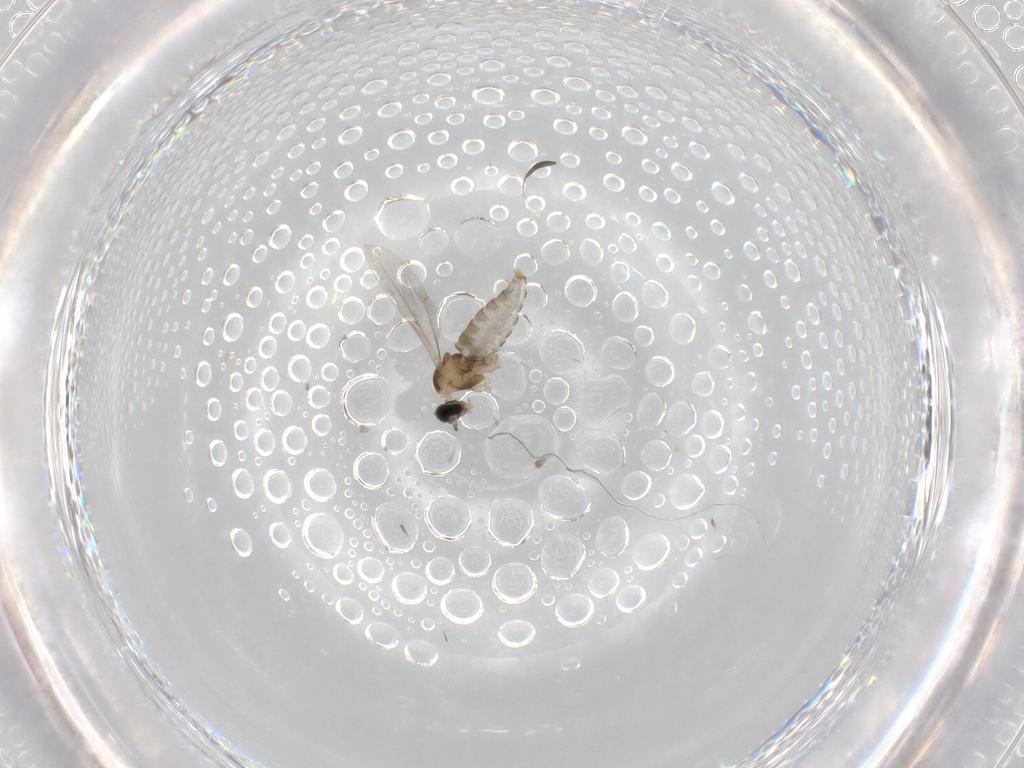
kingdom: Animalia
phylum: Arthropoda
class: Insecta
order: Diptera
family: Cecidomyiidae
